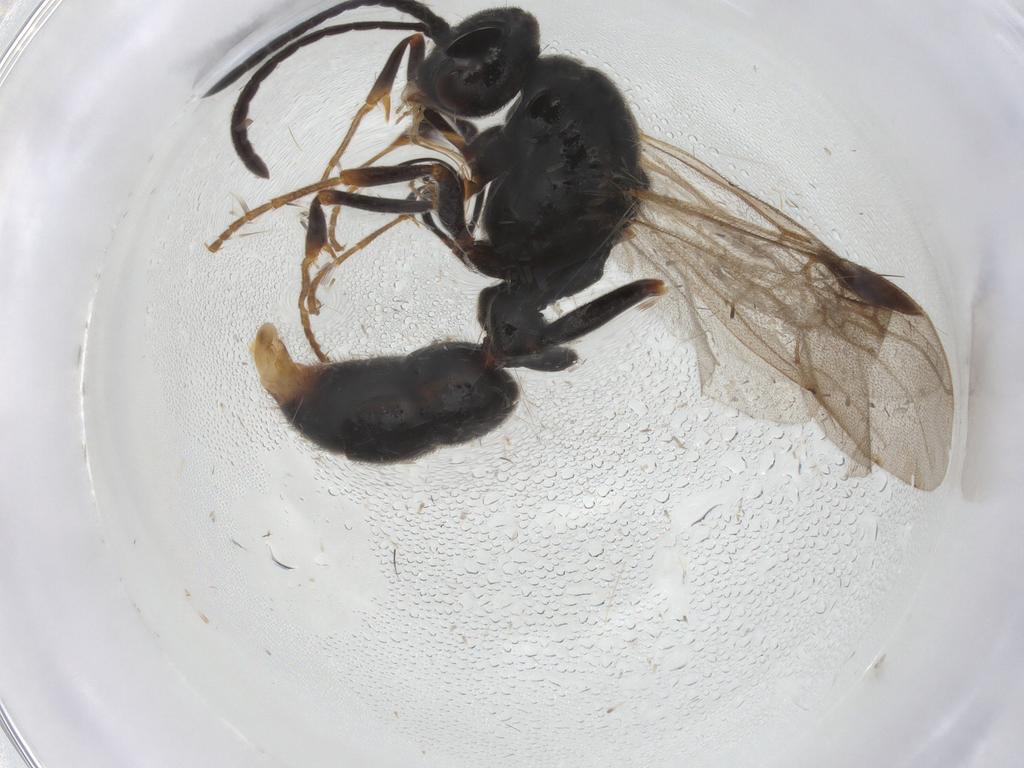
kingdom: Animalia
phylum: Arthropoda
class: Insecta
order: Hymenoptera
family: Formicidae
